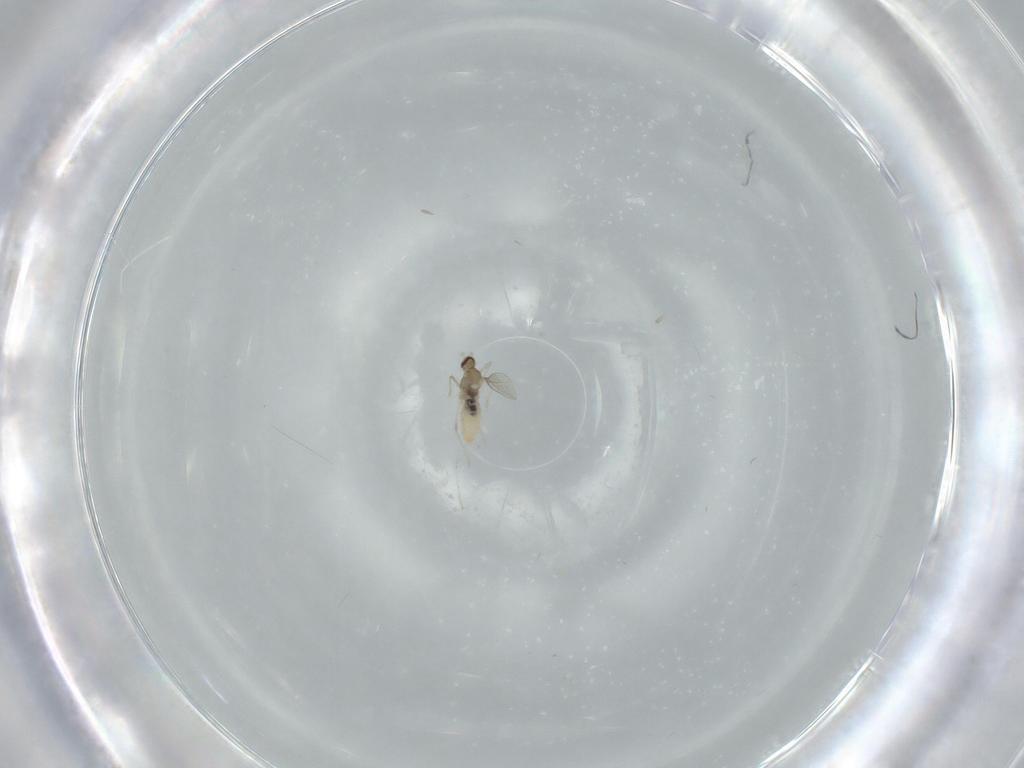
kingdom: Animalia
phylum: Arthropoda
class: Insecta
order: Diptera
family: Cecidomyiidae
